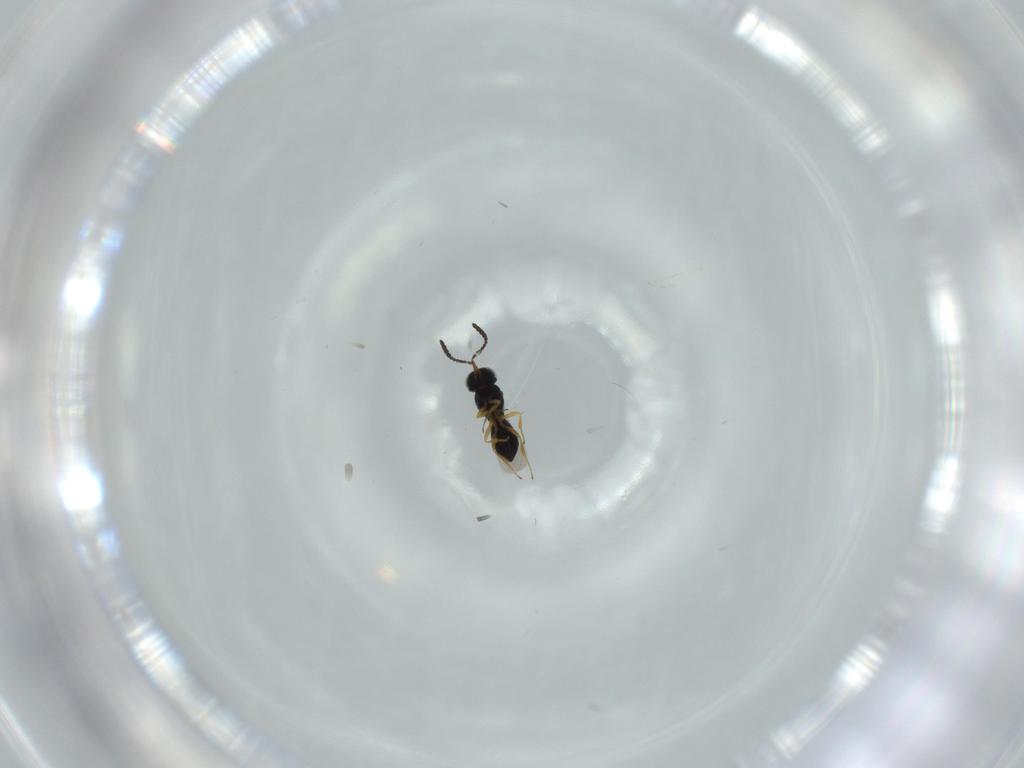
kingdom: Animalia
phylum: Arthropoda
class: Insecta
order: Hymenoptera
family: Scelionidae
